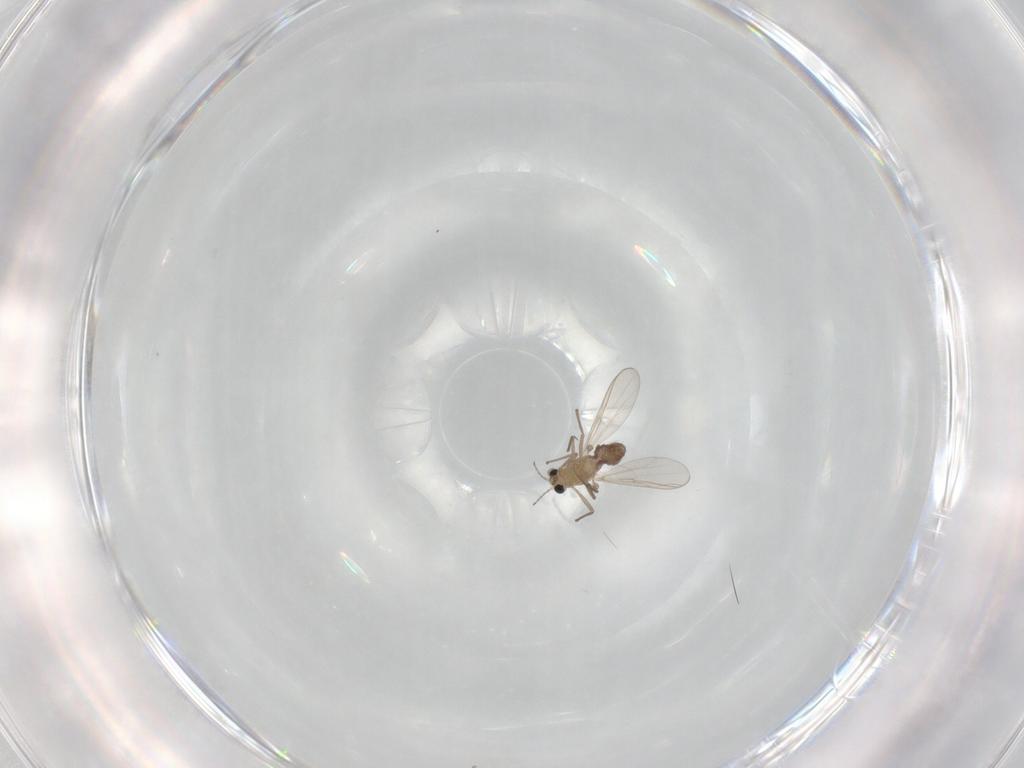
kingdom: Animalia
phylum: Arthropoda
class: Insecta
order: Diptera
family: Chironomidae
